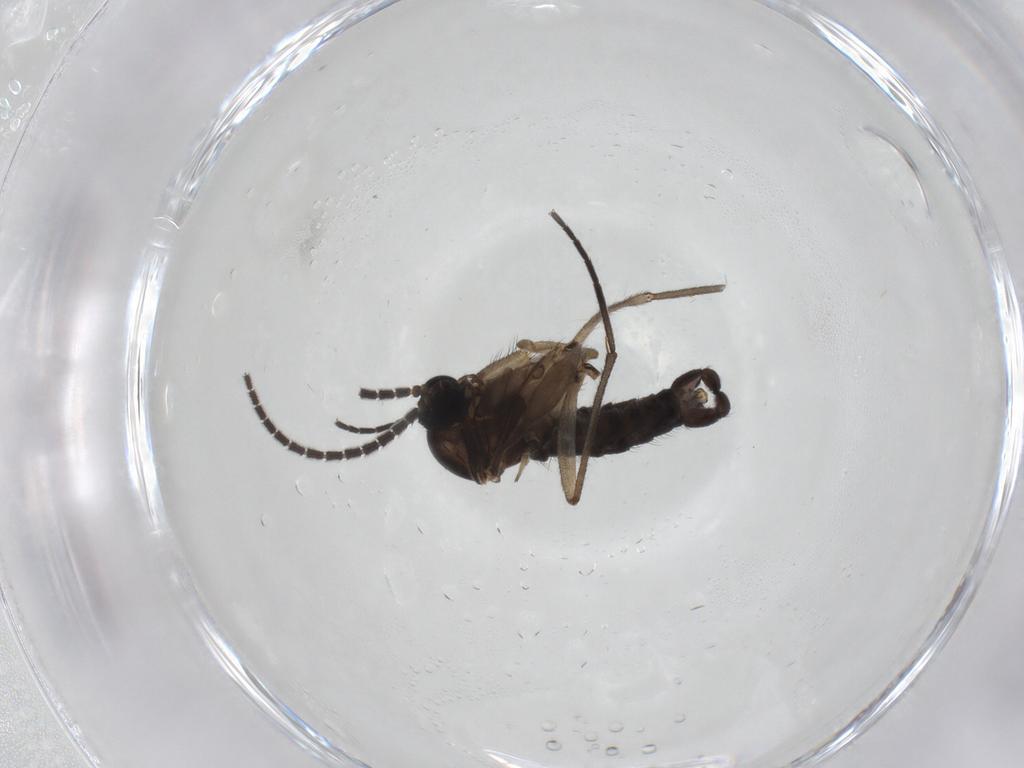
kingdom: Animalia
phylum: Arthropoda
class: Insecta
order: Diptera
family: Sciaridae
